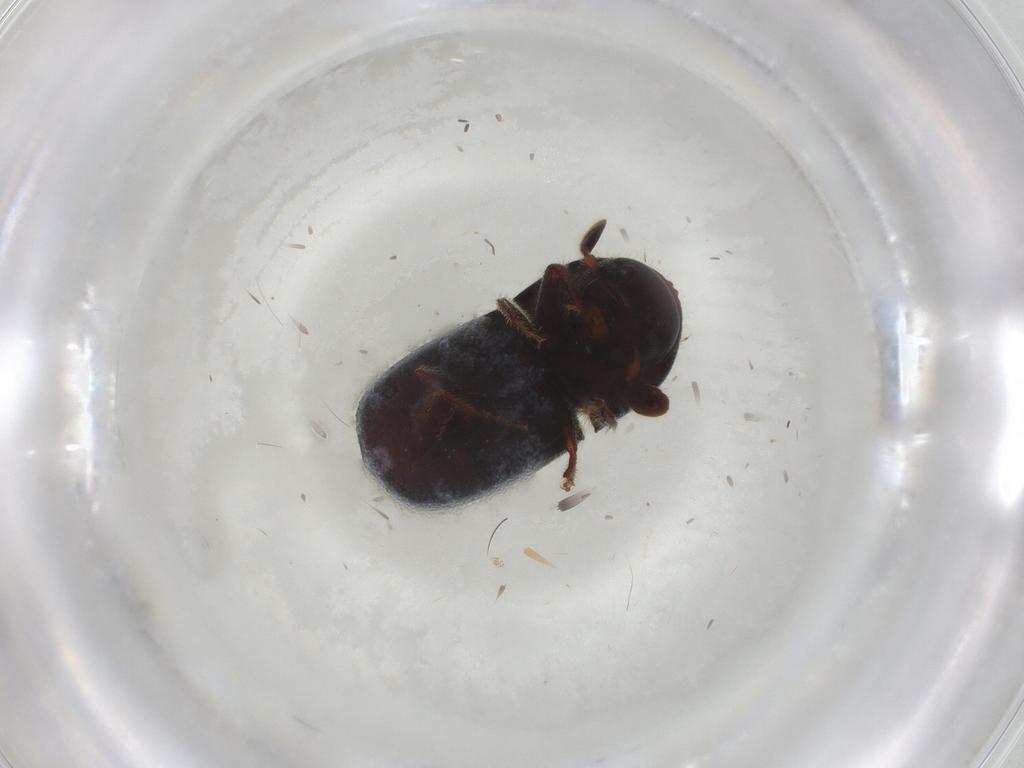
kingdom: Animalia
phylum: Arthropoda
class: Insecta
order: Coleoptera
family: Curculionidae
